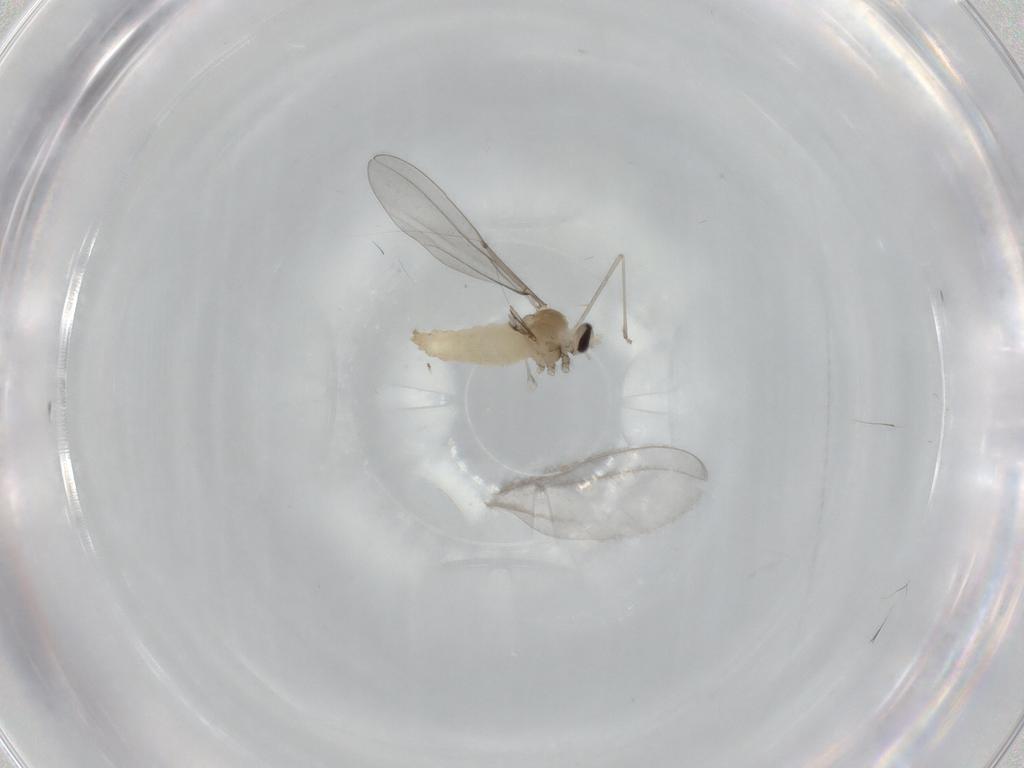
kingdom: Animalia
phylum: Arthropoda
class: Insecta
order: Diptera
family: Cecidomyiidae
